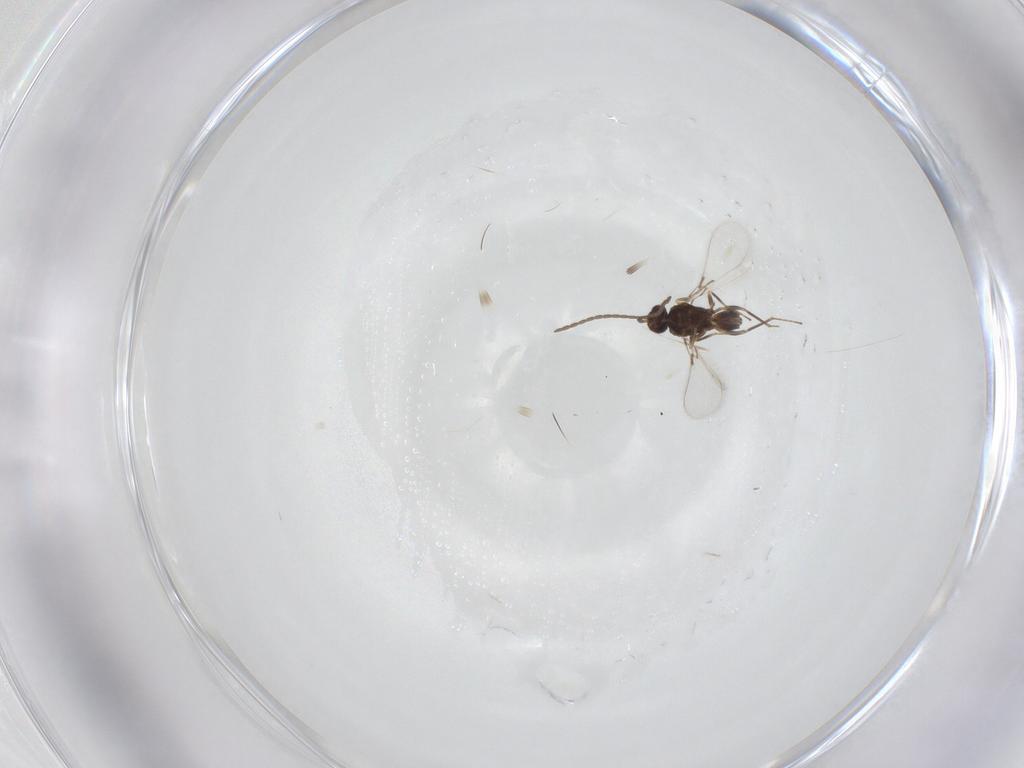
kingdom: Animalia
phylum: Arthropoda
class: Insecta
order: Hymenoptera
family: Mymaridae
